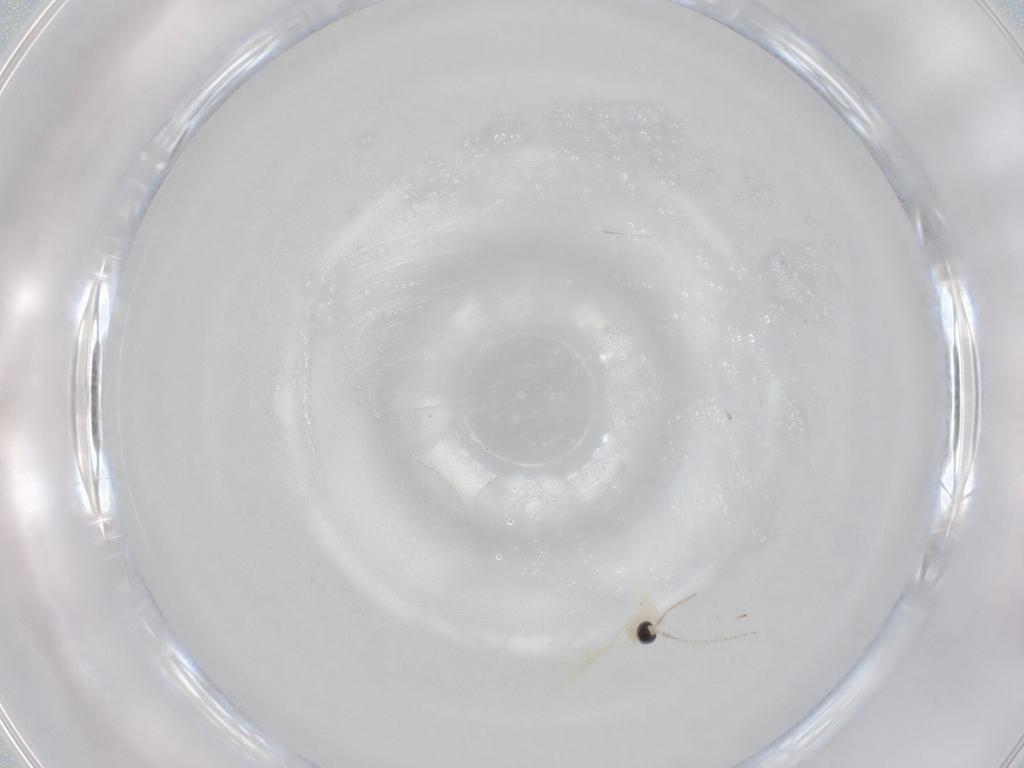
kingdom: Animalia
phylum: Arthropoda
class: Insecta
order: Diptera
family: Cecidomyiidae
